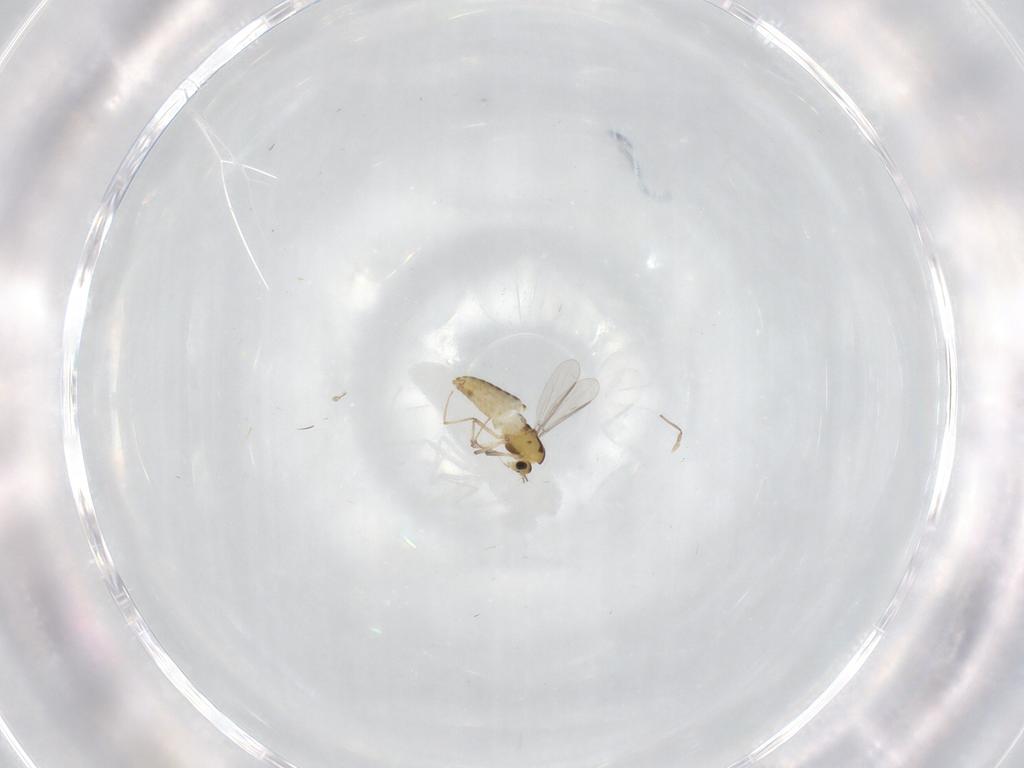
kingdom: Animalia
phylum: Arthropoda
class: Insecta
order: Diptera
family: Chironomidae
